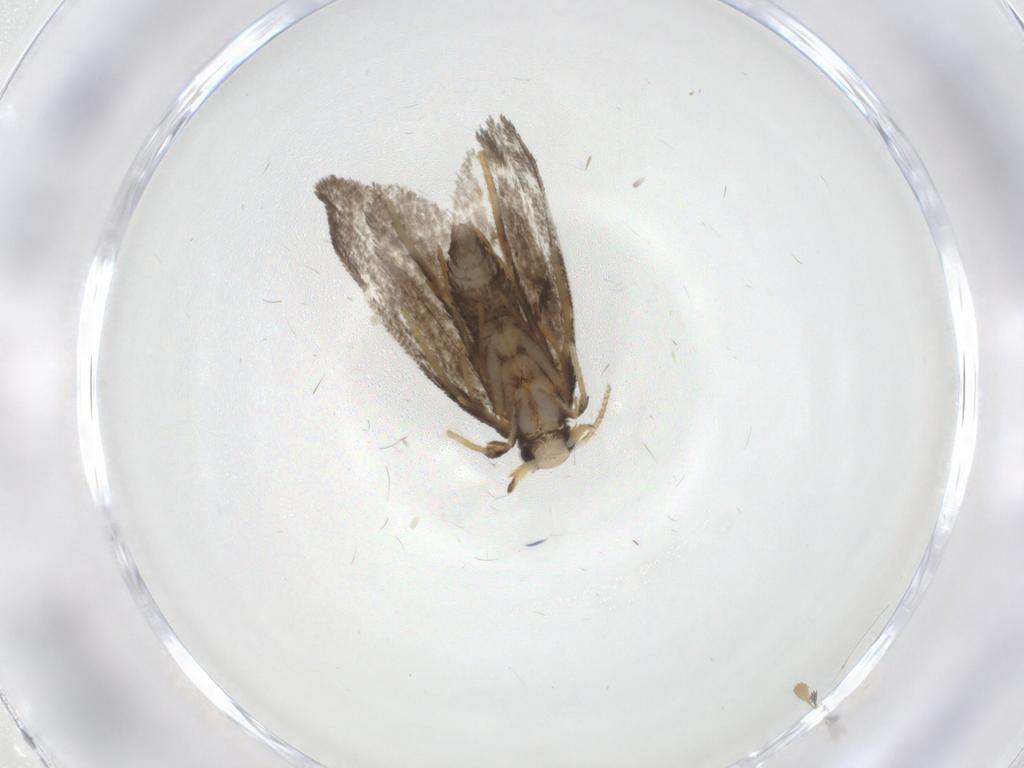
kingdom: Animalia
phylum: Arthropoda
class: Insecta
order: Lepidoptera
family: Psychidae
